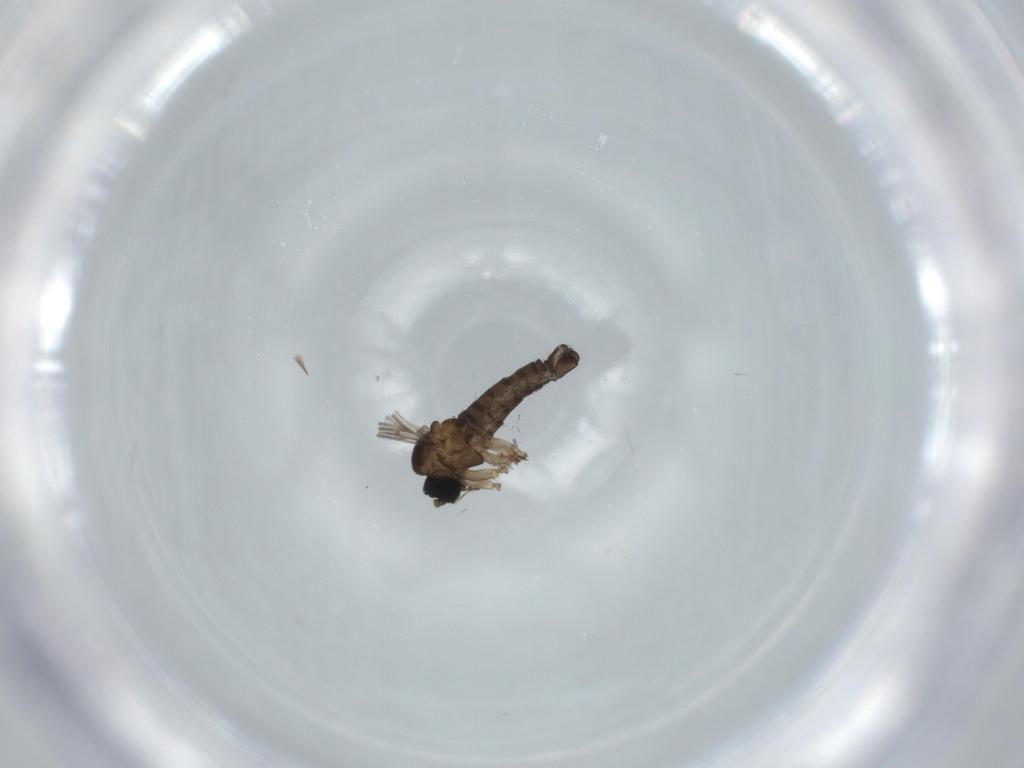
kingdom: Animalia
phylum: Arthropoda
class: Insecta
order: Diptera
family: Sciaridae
